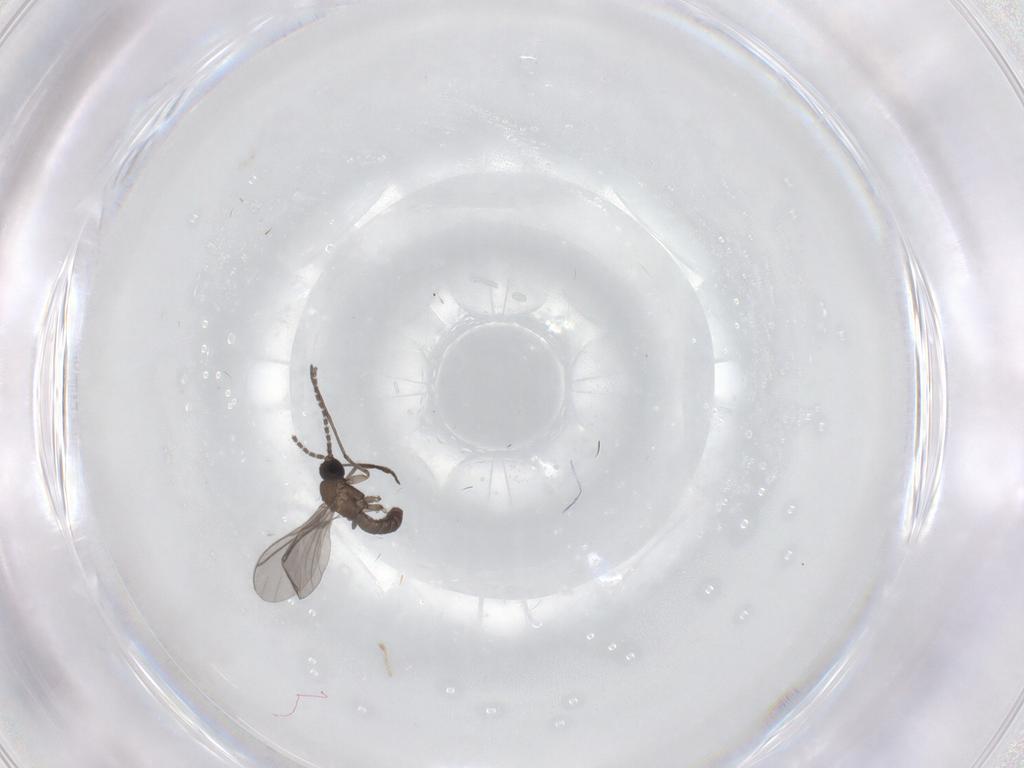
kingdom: Animalia
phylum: Arthropoda
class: Insecta
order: Diptera
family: Sciaridae
